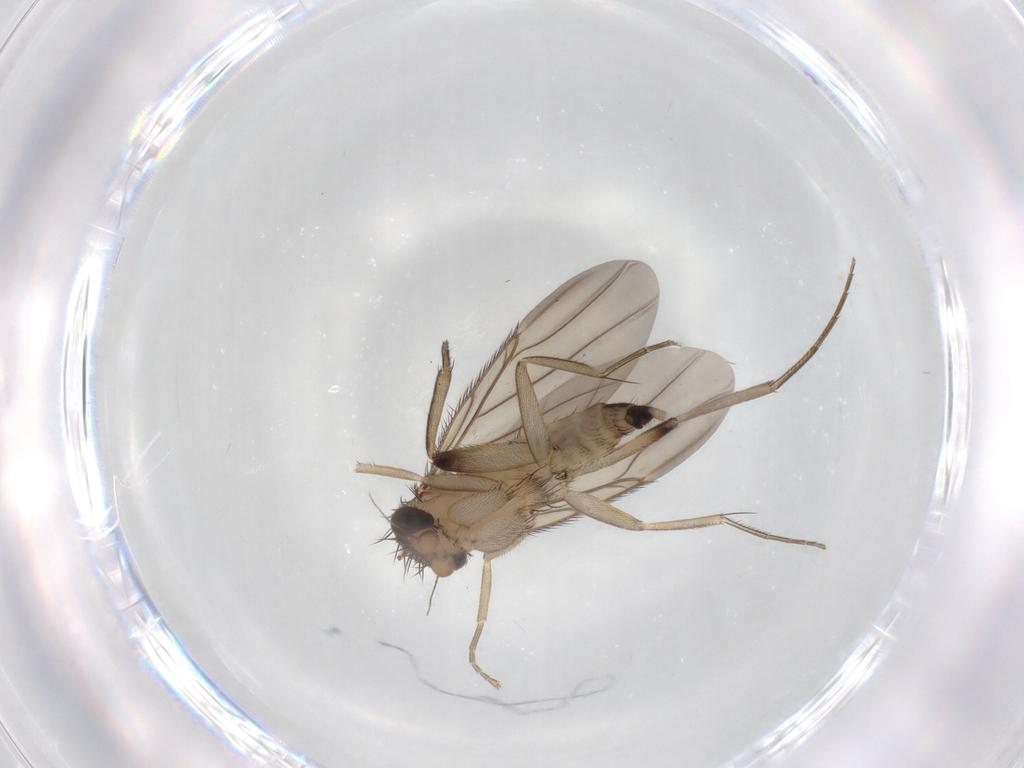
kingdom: Animalia
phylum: Arthropoda
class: Insecta
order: Diptera
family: Phoridae
